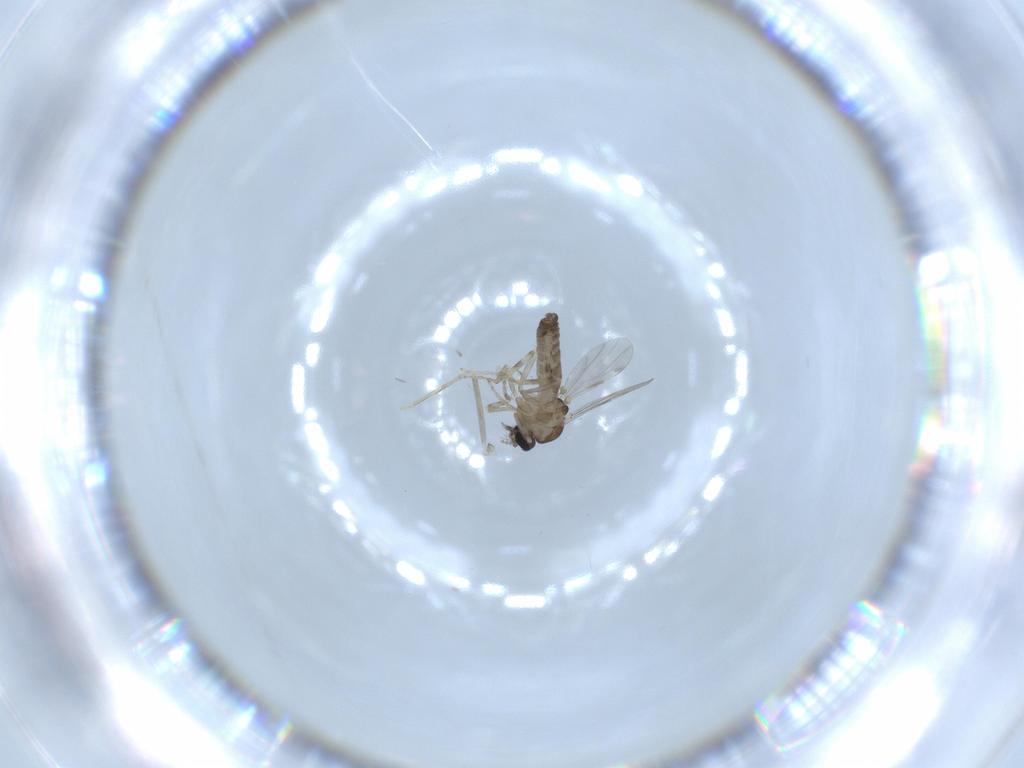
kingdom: Animalia
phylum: Arthropoda
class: Insecta
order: Diptera
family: Ceratopogonidae
